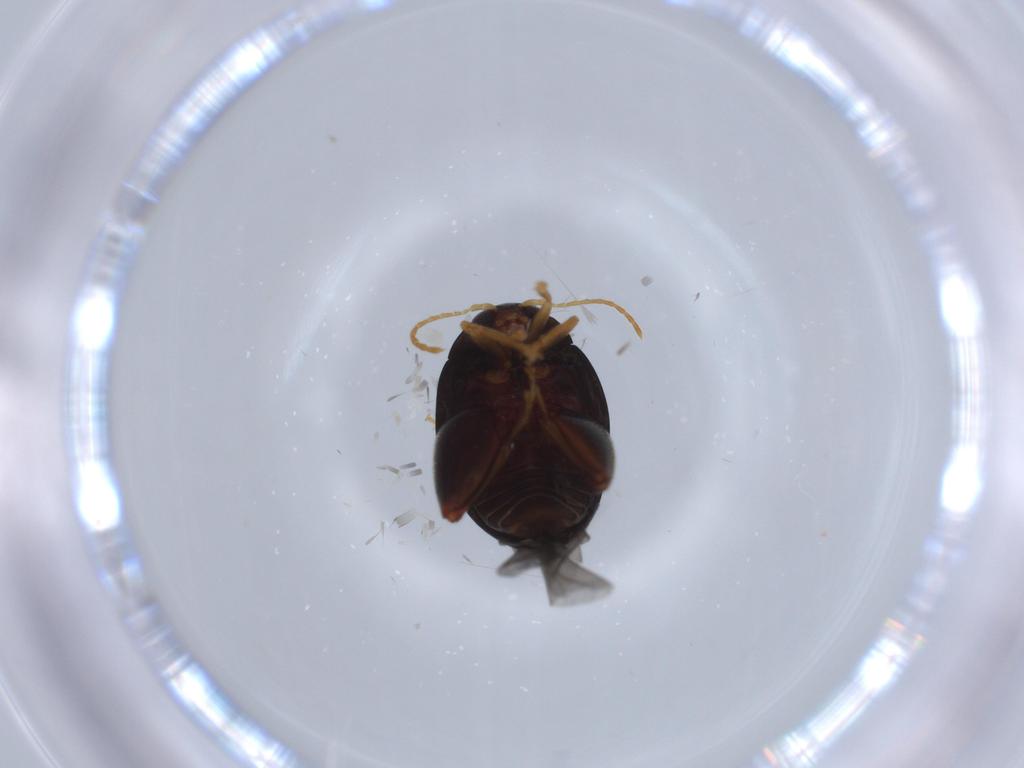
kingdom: Animalia
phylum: Arthropoda
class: Insecta
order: Coleoptera
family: Chrysomelidae
